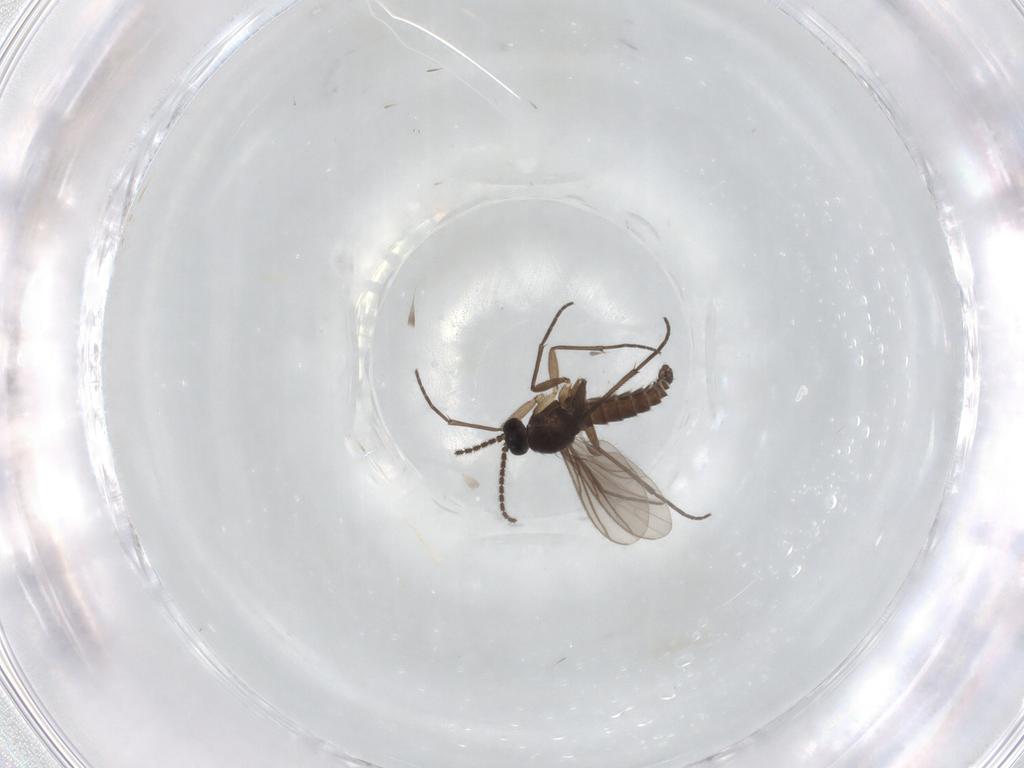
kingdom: Animalia
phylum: Arthropoda
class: Insecta
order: Diptera
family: Sciaridae
